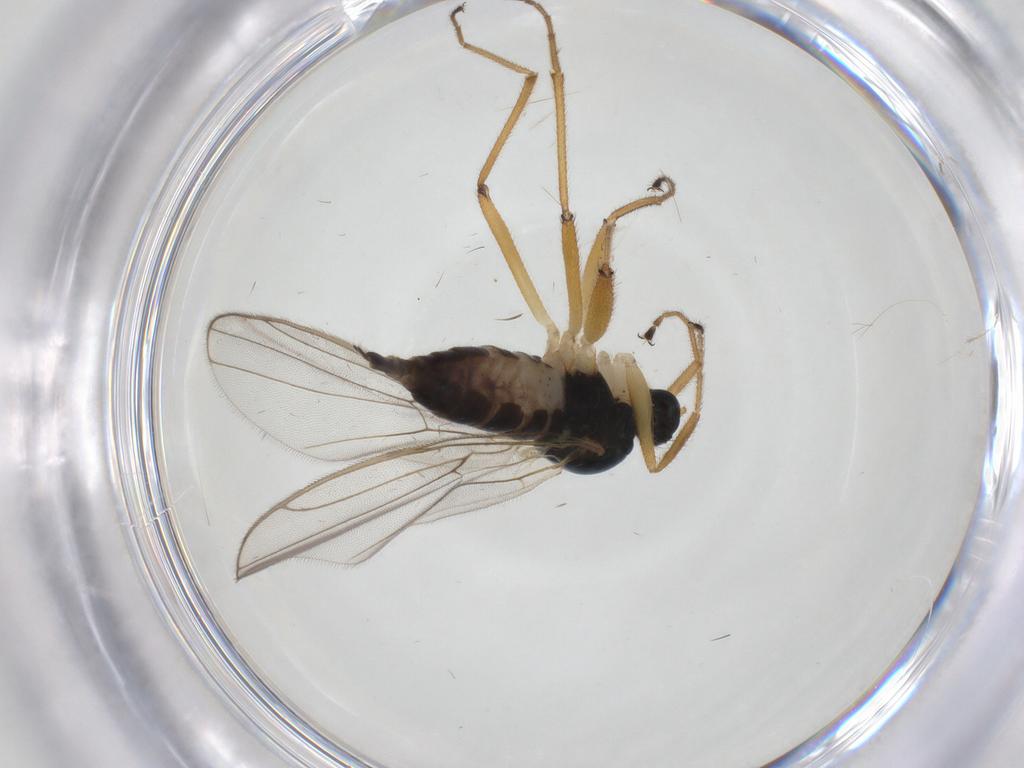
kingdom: Animalia
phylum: Arthropoda
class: Insecta
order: Diptera
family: Hybotidae
